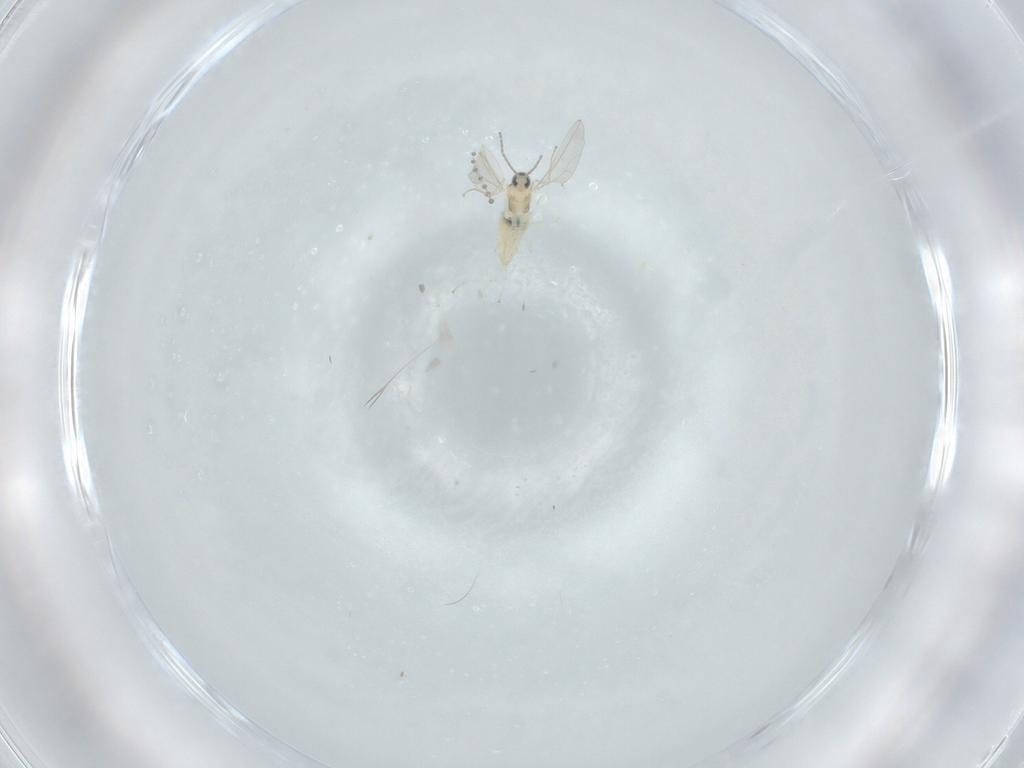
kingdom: Animalia
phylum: Arthropoda
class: Insecta
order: Diptera
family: Cecidomyiidae
